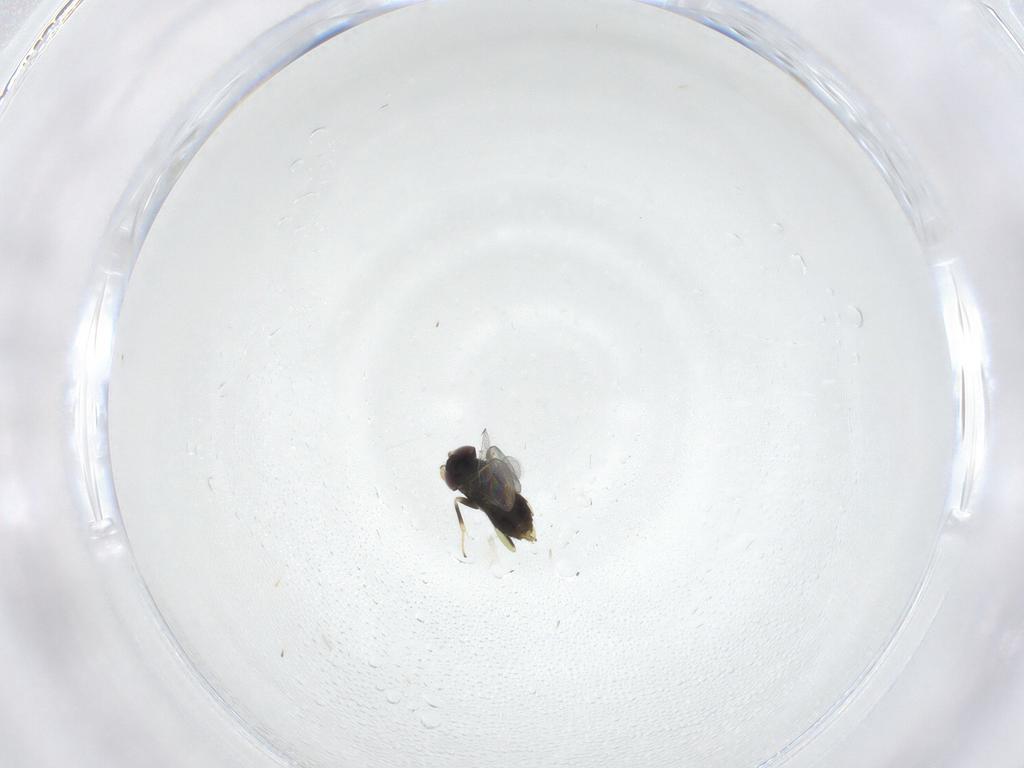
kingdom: Animalia
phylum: Arthropoda
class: Insecta
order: Hymenoptera
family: Aphelinidae
